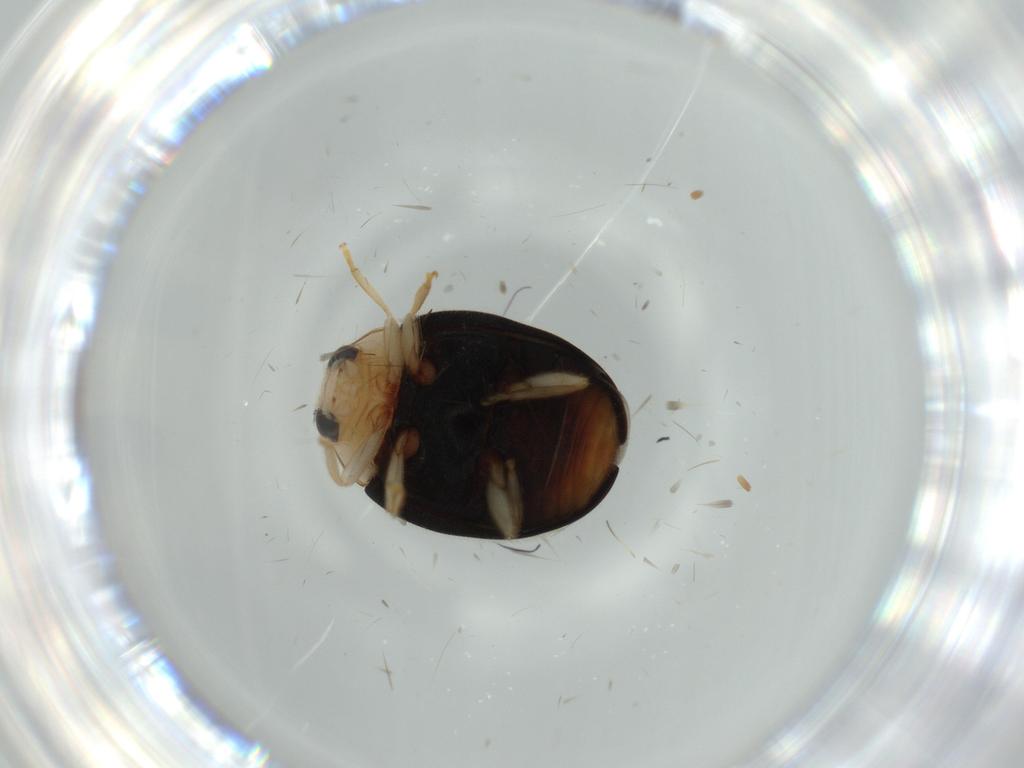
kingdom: Animalia
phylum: Arthropoda
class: Insecta
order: Coleoptera
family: Coccinellidae
